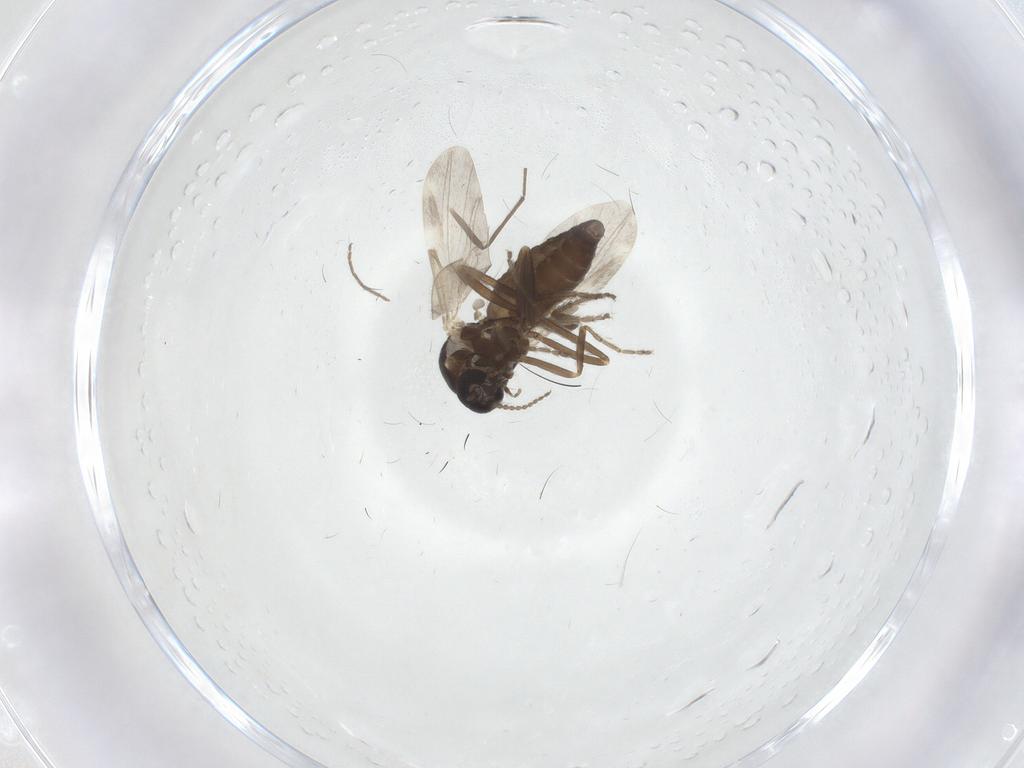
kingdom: Animalia
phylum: Arthropoda
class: Insecta
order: Diptera
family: Ceratopogonidae
